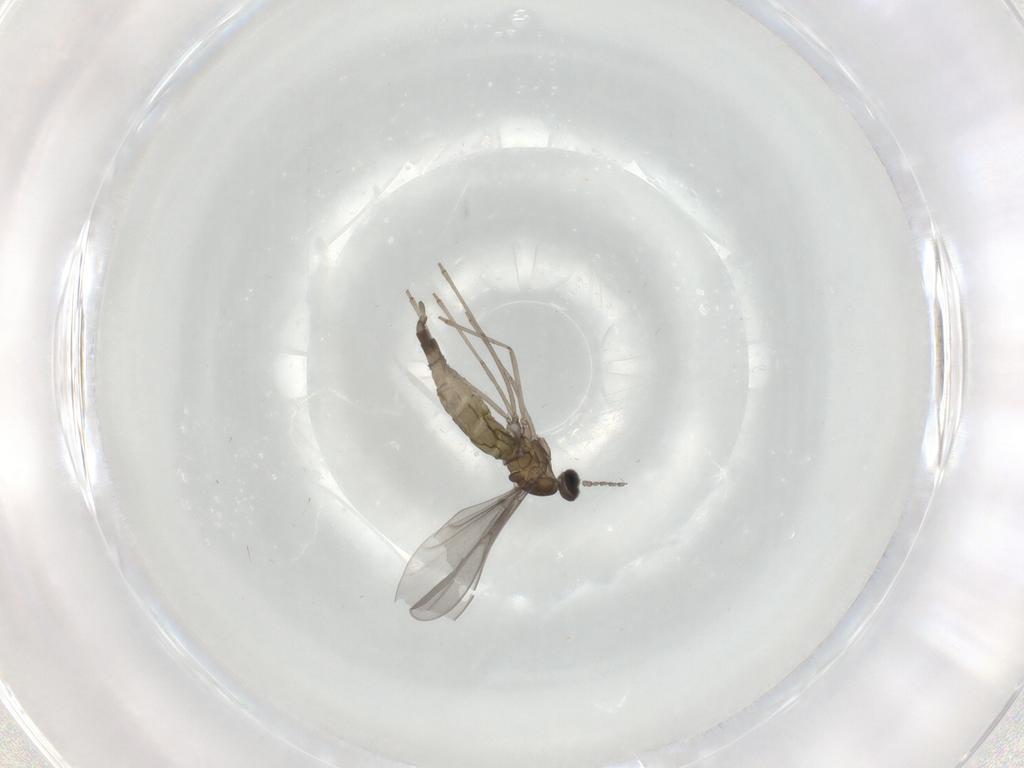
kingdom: Animalia
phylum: Arthropoda
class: Insecta
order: Diptera
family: Cecidomyiidae
